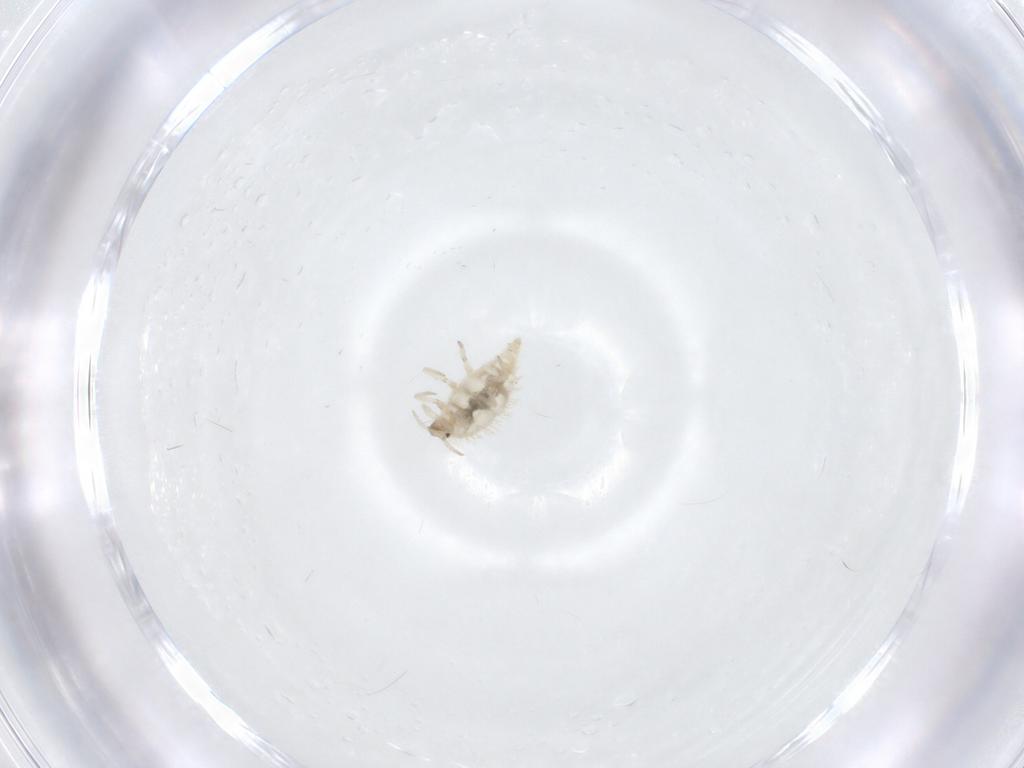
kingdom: Animalia
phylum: Arthropoda
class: Insecta
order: Neuroptera
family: Coniopterygidae
